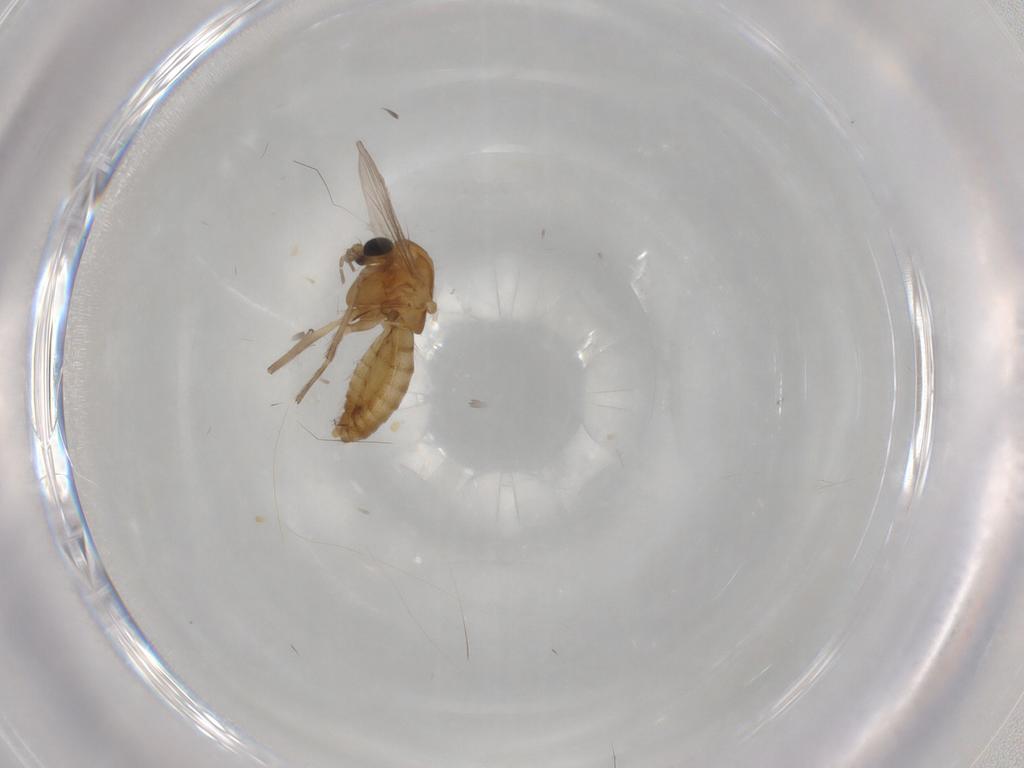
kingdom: Animalia
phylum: Arthropoda
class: Insecta
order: Diptera
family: Chironomidae
